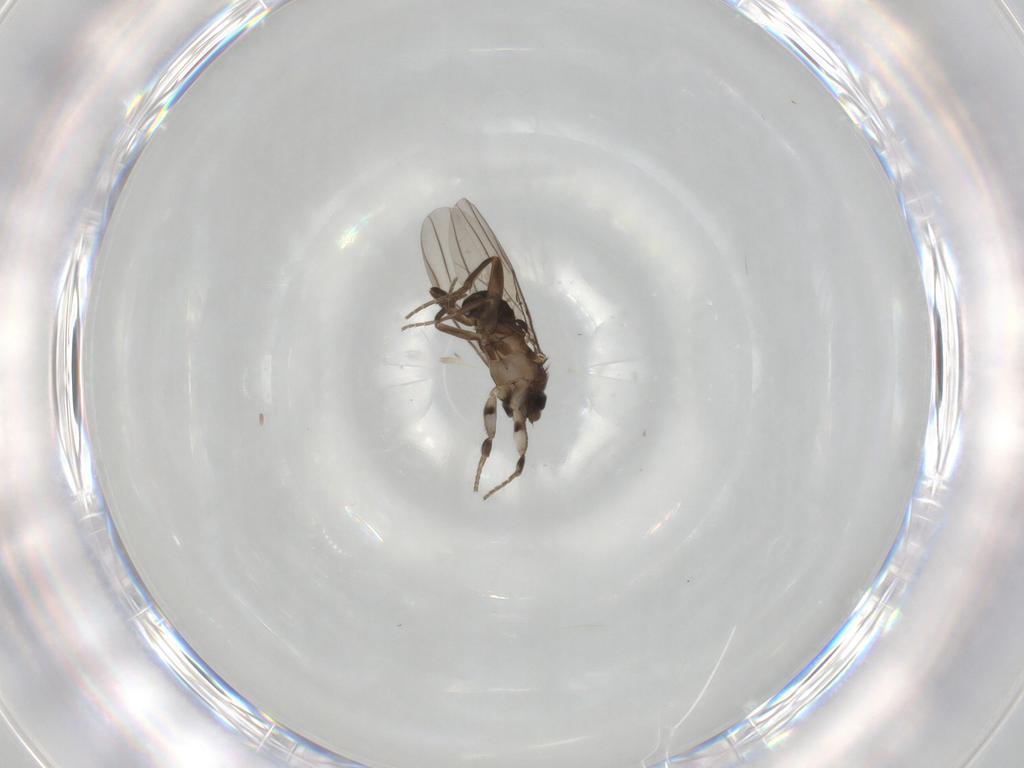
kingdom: Animalia
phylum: Arthropoda
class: Insecta
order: Diptera
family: Phoridae
